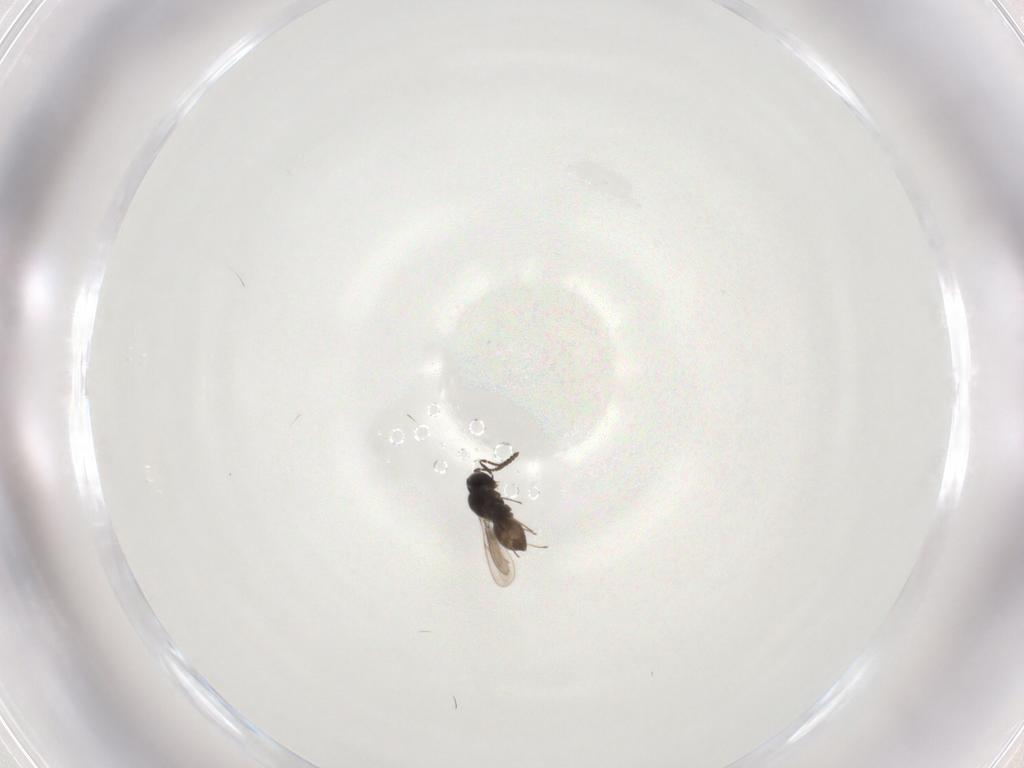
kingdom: Animalia
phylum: Arthropoda
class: Insecta
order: Hymenoptera
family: Scelionidae
